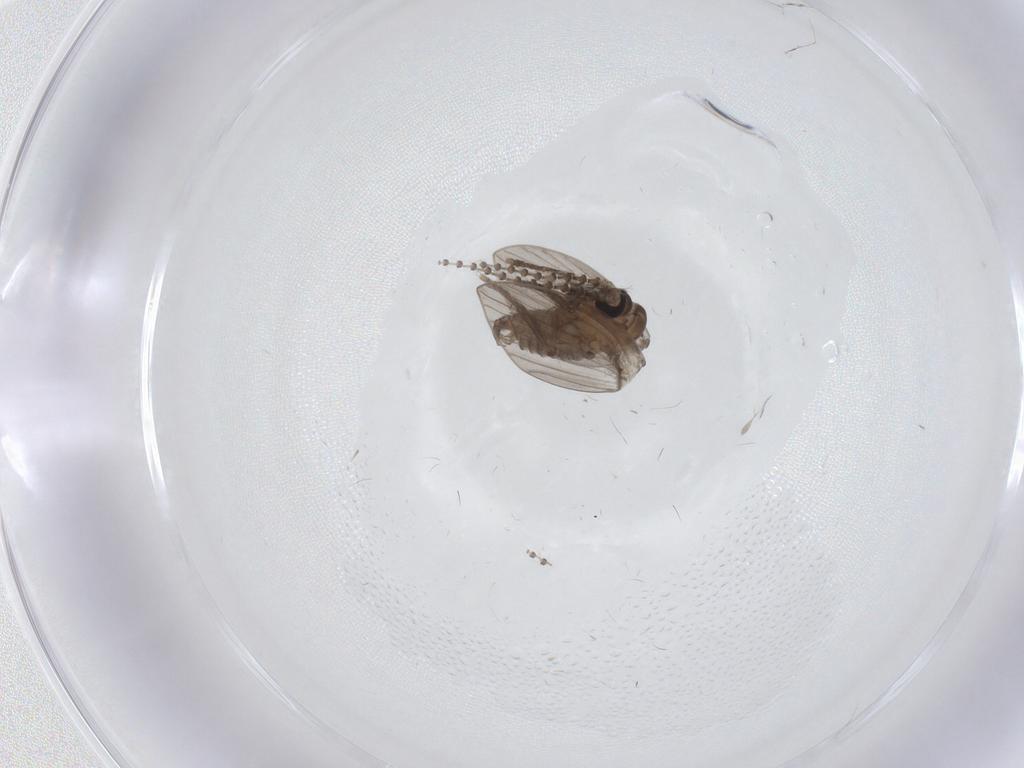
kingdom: Animalia
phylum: Arthropoda
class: Insecta
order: Diptera
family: Psychodidae
